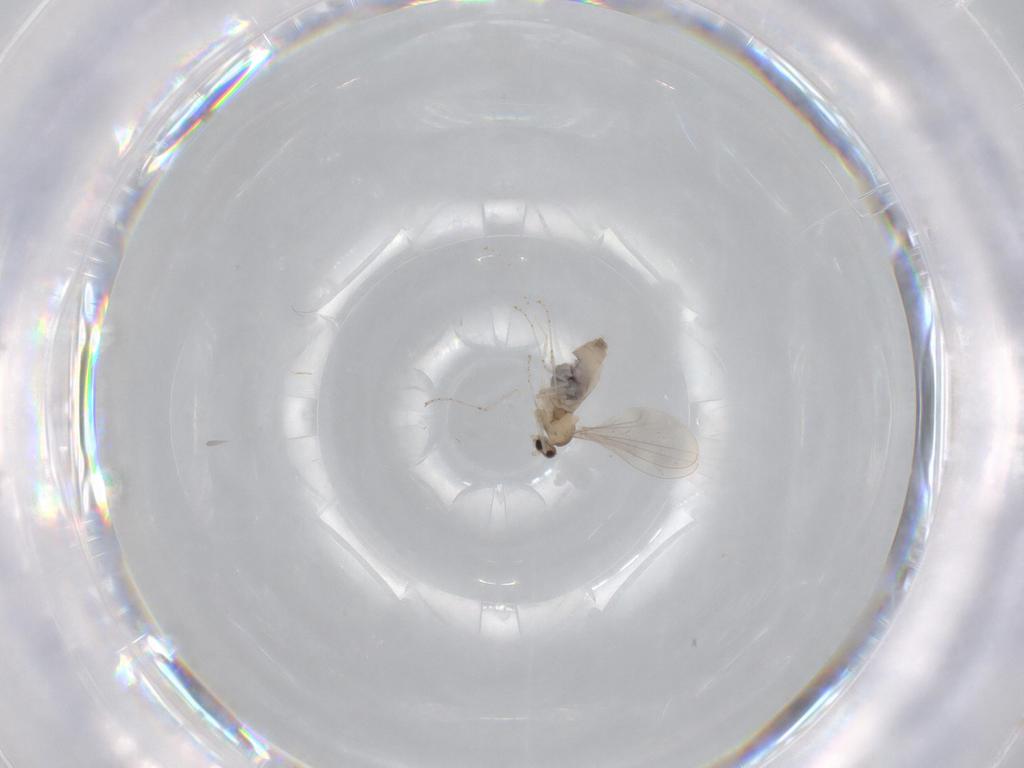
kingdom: Animalia
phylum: Arthropoda
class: Insecta
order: Diptera
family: Cecidomyiidae
